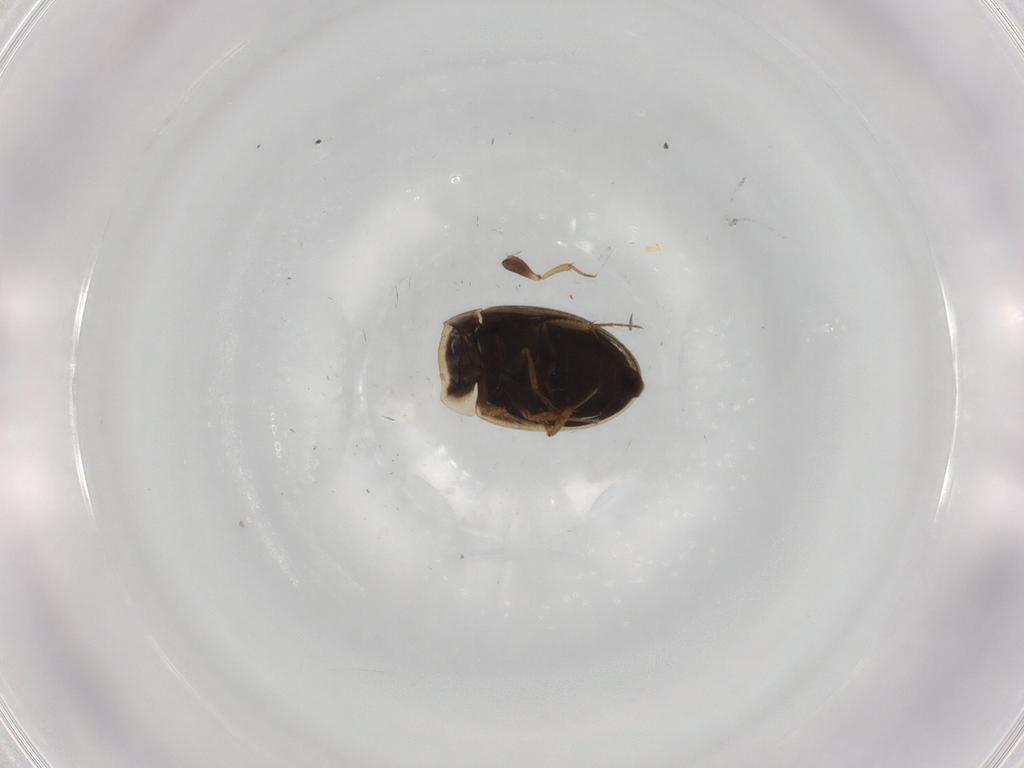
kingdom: Animalia
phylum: Arthropoda
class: Insecta
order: Coleoptera
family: Hydrophilidae
